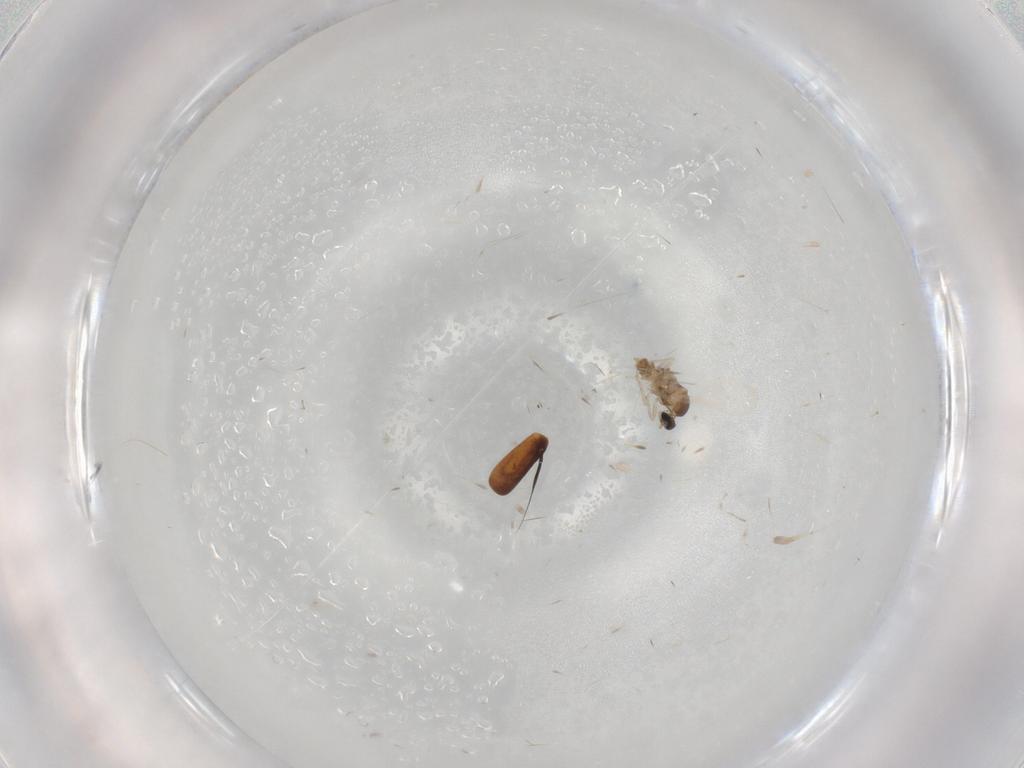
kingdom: Animalia
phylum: Arthropoda
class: Insecta
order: Diptera
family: Cecidomyiidae
